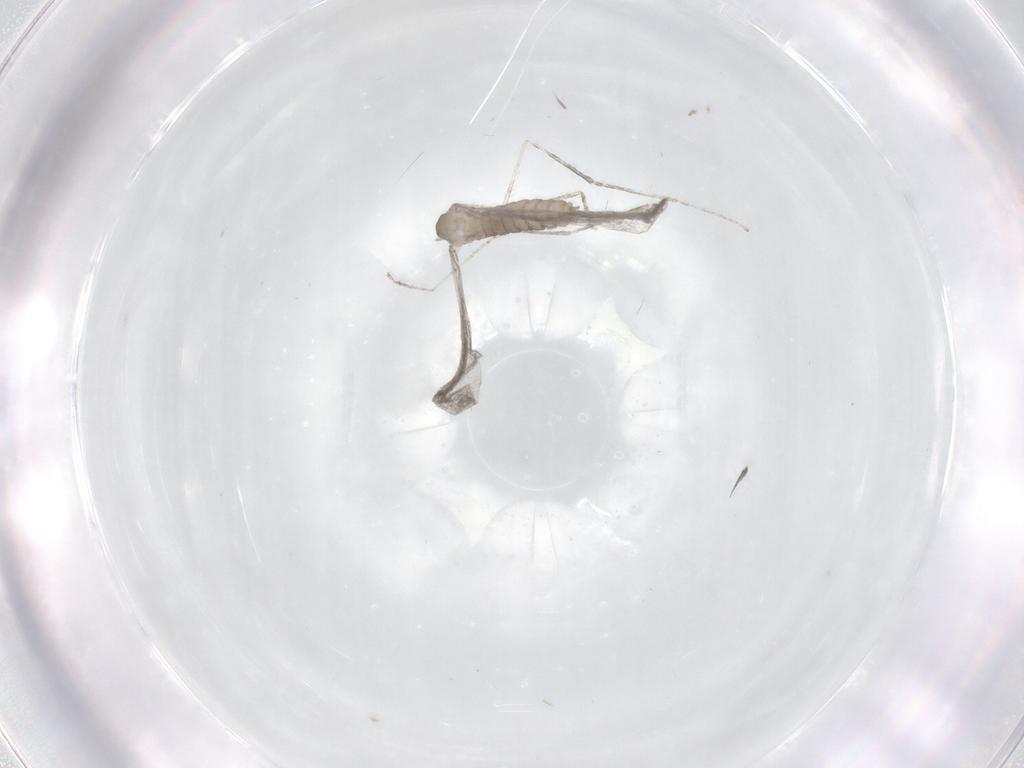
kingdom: Animalia
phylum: Arthropoda
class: Insecta
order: Diptera
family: Cecidomyiidae
